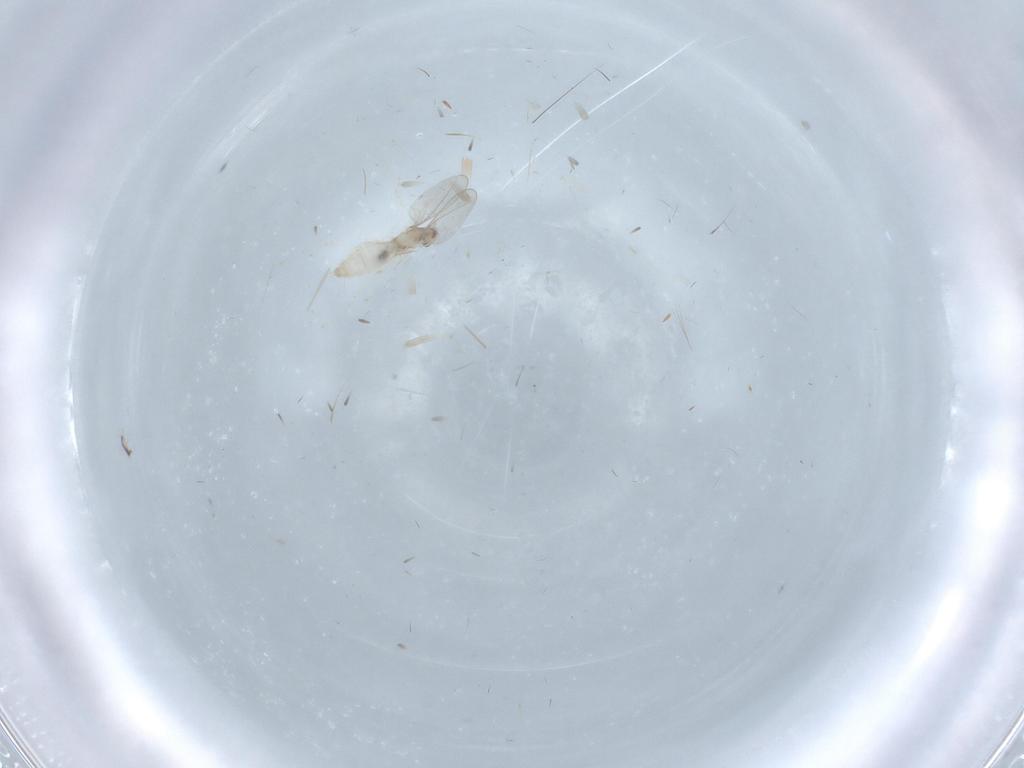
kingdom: Animalia
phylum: Arthropoda
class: Insecta
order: Diptera
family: Cecidomyiidae
